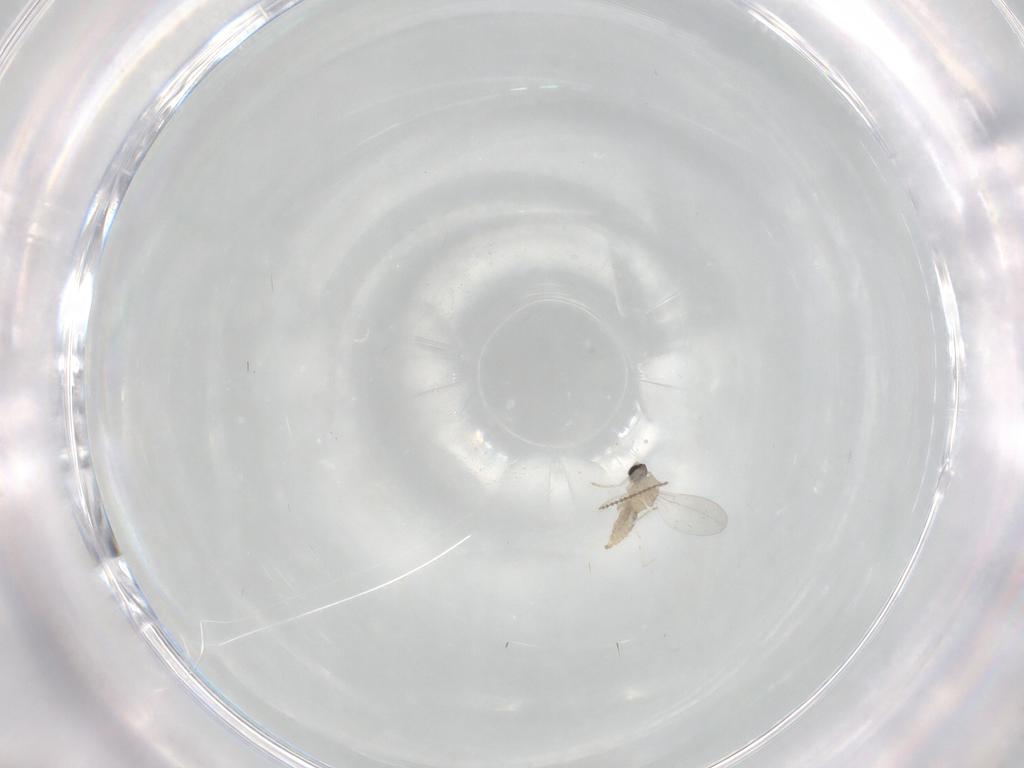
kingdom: Animalia
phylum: Arthropoda
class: Insecta
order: Diptera
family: Cecidomyiidae
